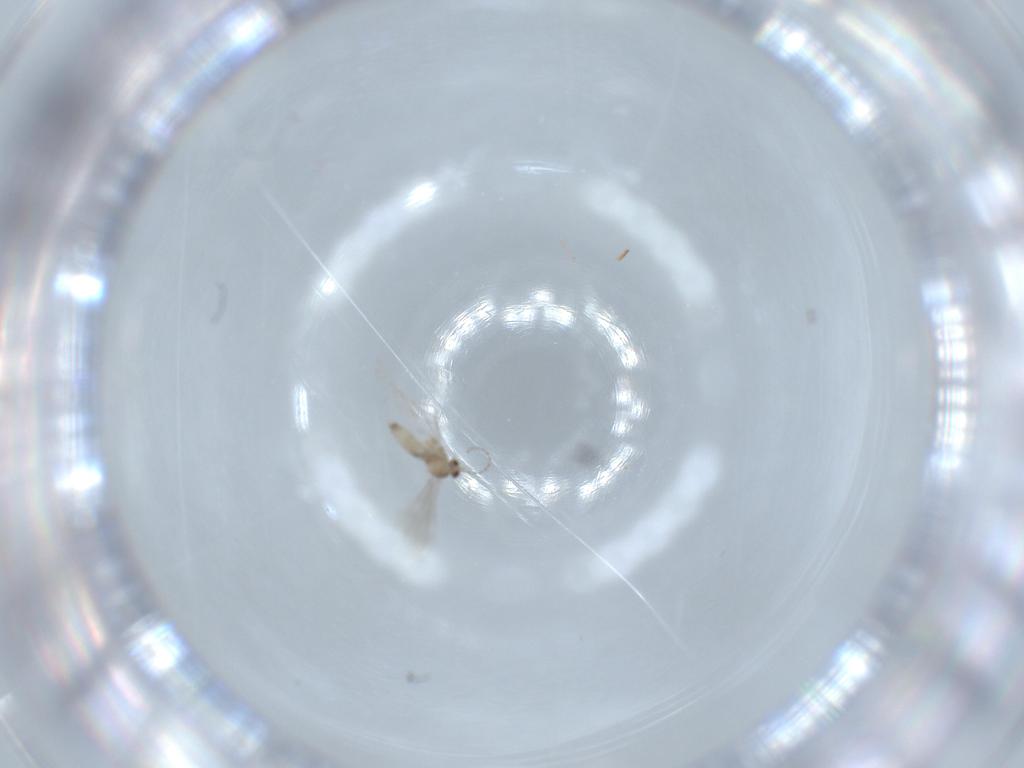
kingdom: Animalia
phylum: Arthropoda
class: Insecta
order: Diptera
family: Cecidomyiidae
